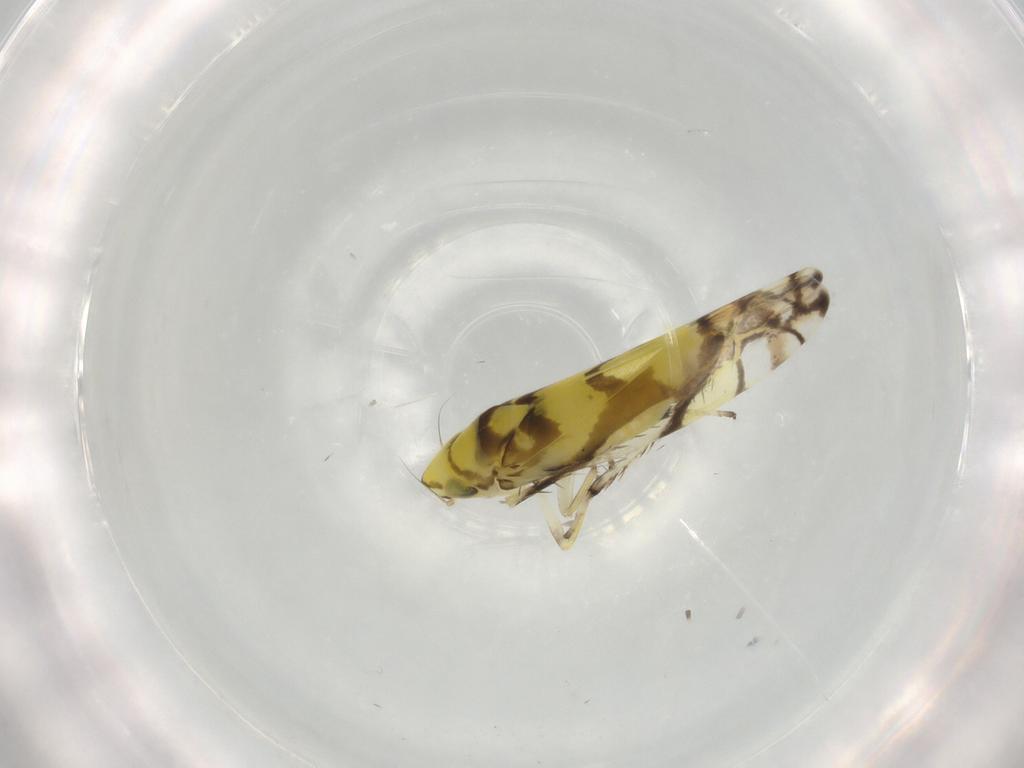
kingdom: Animalia
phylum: Arthropoda
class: Insecta
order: Hemiptera
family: Cicadellidae
